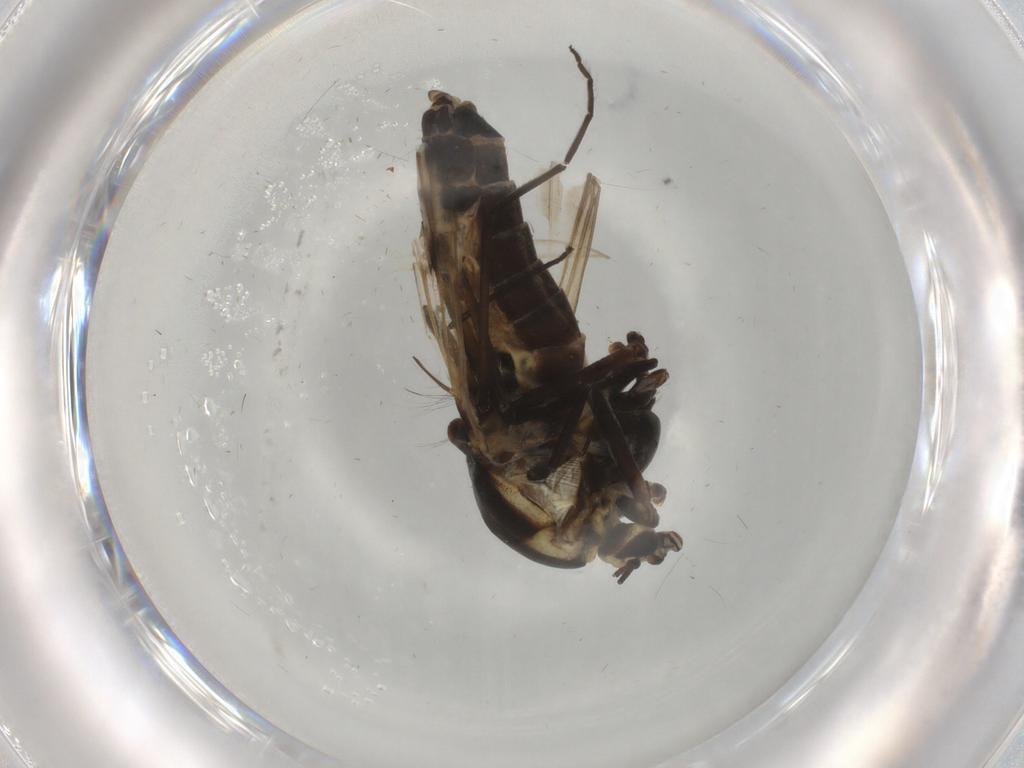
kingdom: Animalia
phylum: Arthropoda
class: Insecta
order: Diptera
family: Chironomidae
